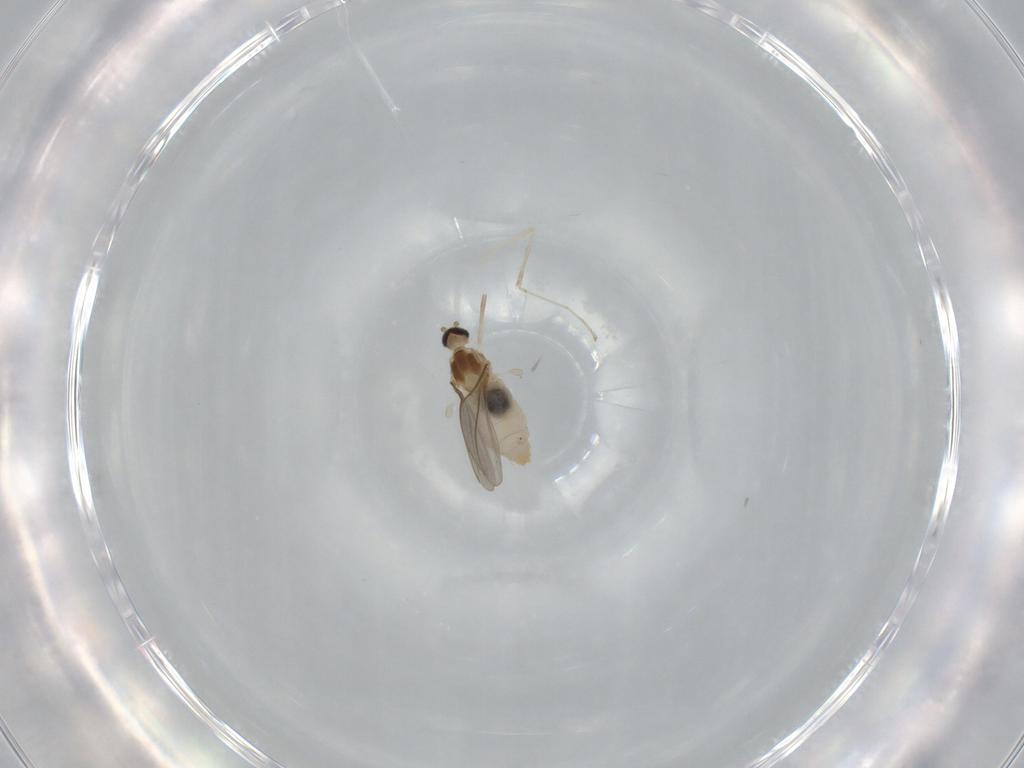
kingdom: Animalia
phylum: Arthropoda
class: Insecta
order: Diptera
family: Cecidomyiidae
